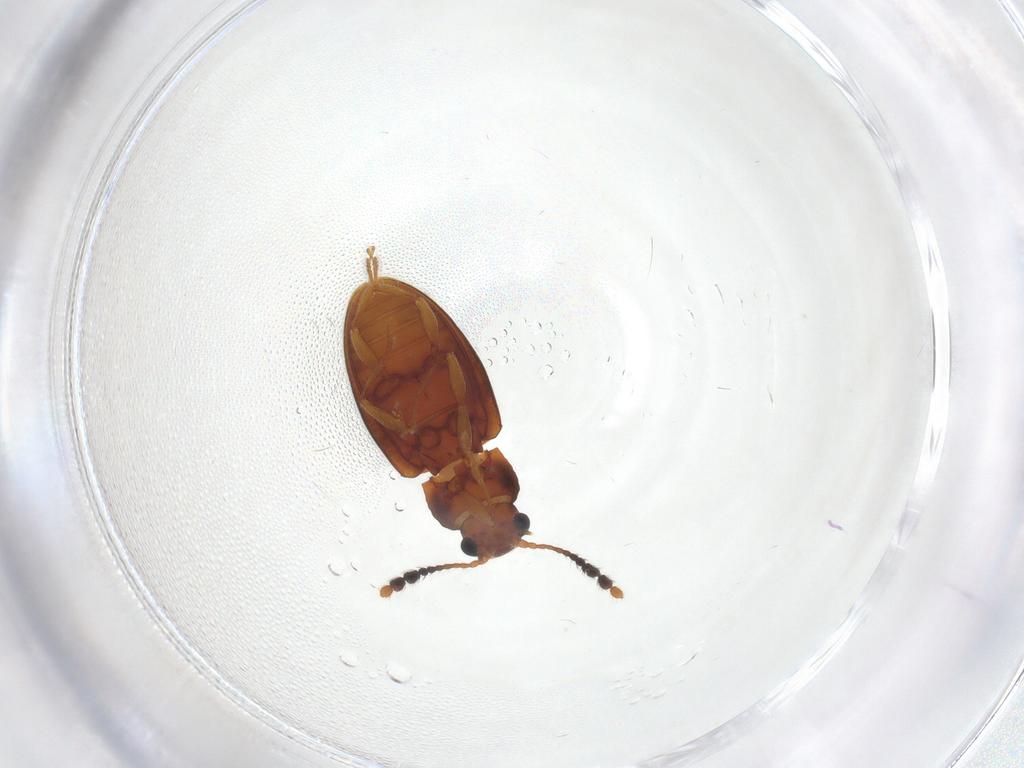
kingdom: Animalia
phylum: Arthropoda
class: Insecta
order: Coleoptera
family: Erotylidae
